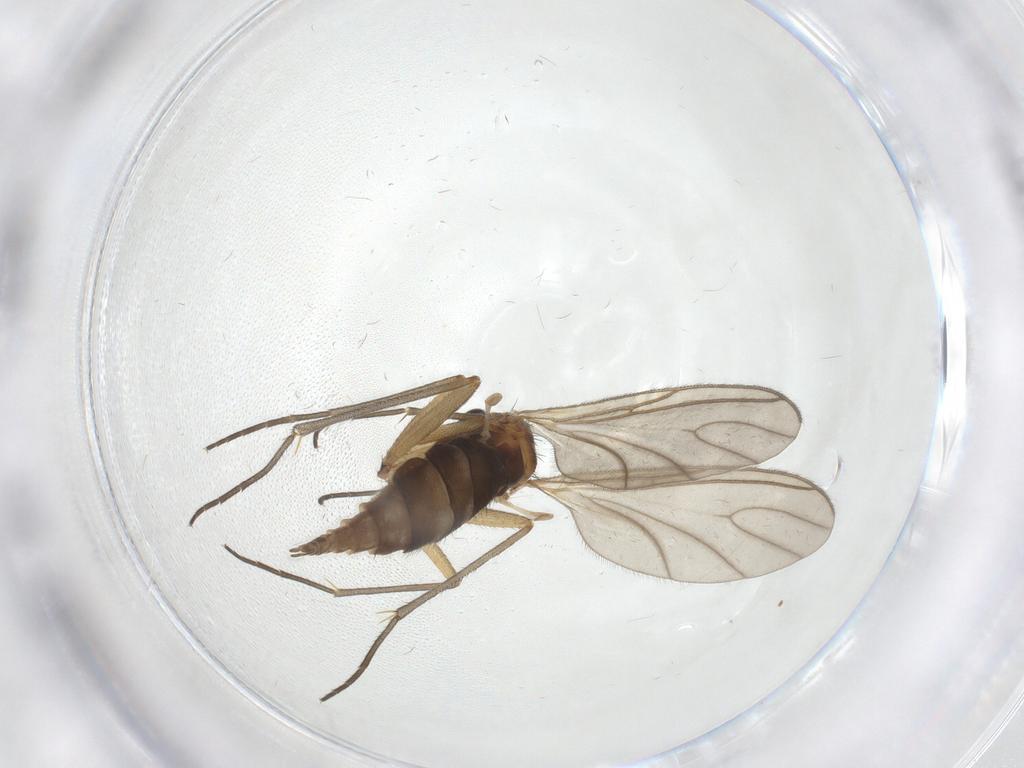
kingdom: Animalia
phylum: Arthropoda
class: Insecta
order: Diptera
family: Sciaridae
